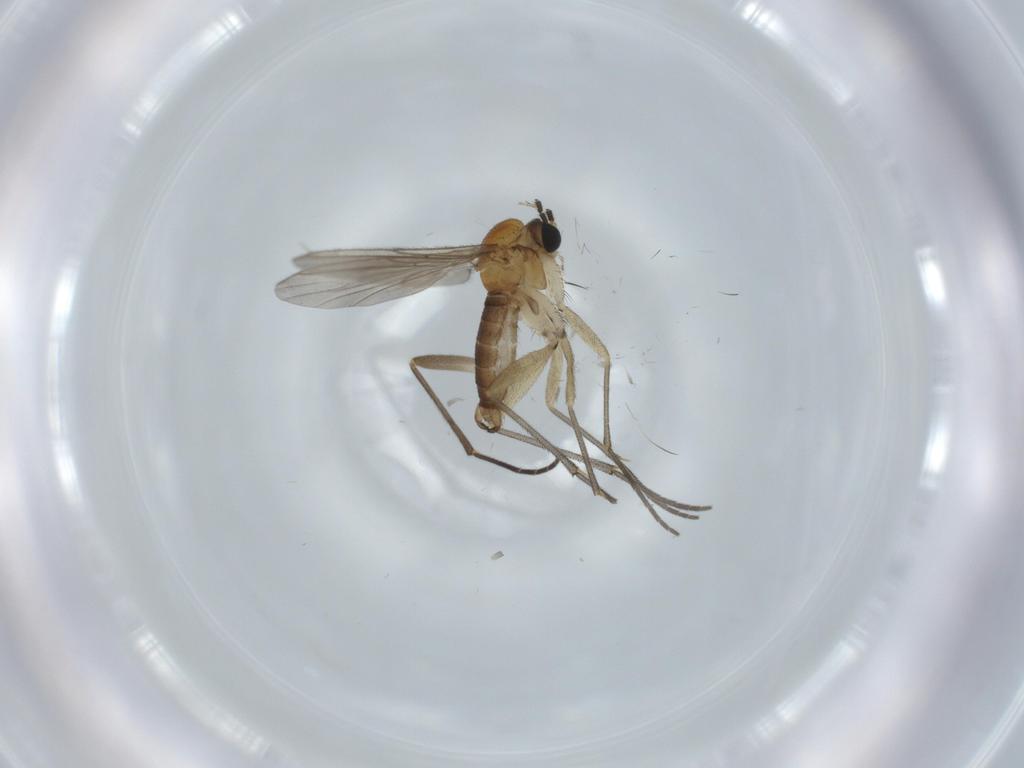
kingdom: Animalia
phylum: Arthropoda
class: Insecta
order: Diptera
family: Sciaridae
